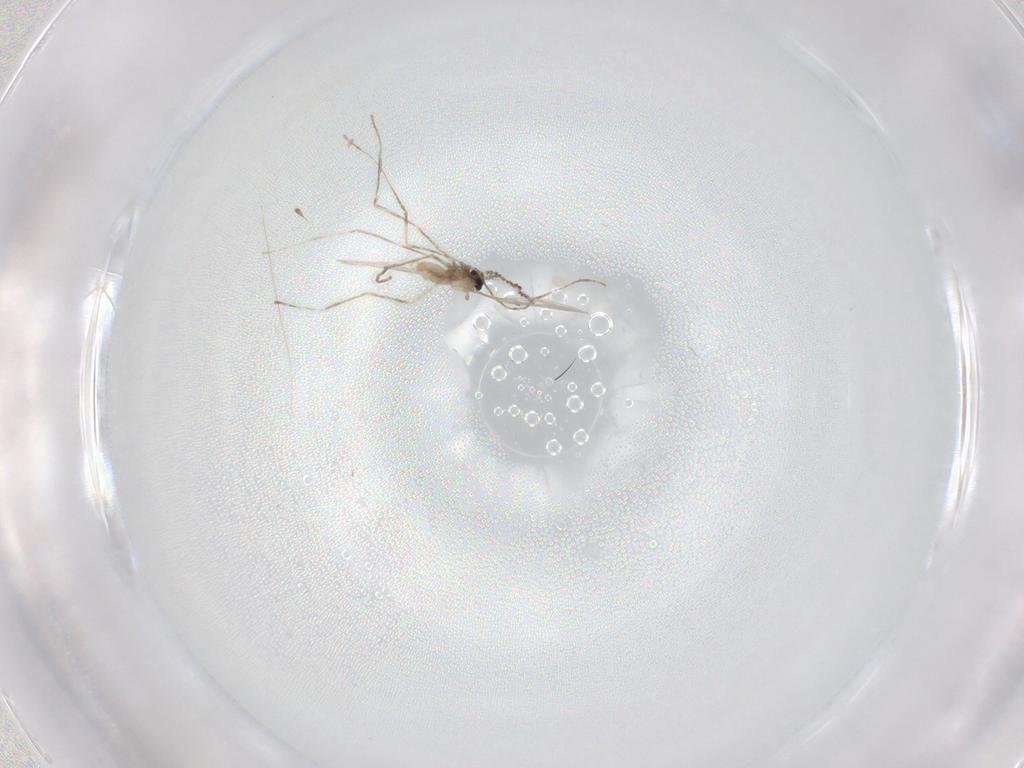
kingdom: Animalia
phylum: Arthropoda
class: Insecta
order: Diptera
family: Cecidomyiidae
